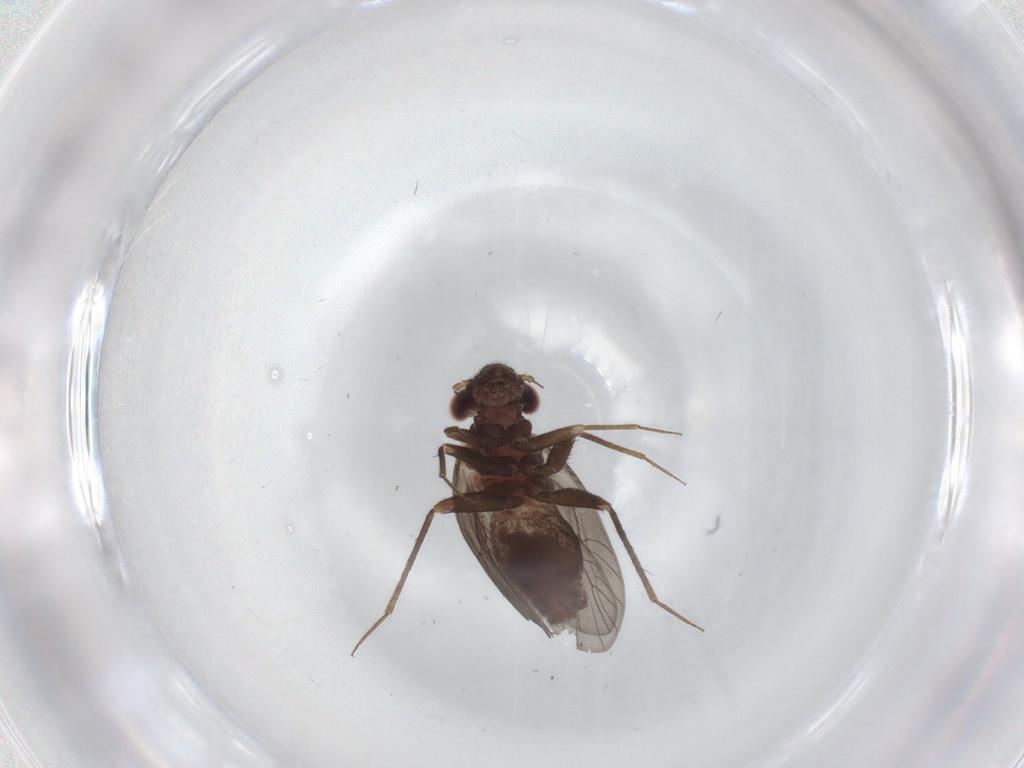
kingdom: Animalia
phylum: Arthropoda
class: Insecta
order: Psocodea
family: Lepidopsocidae
